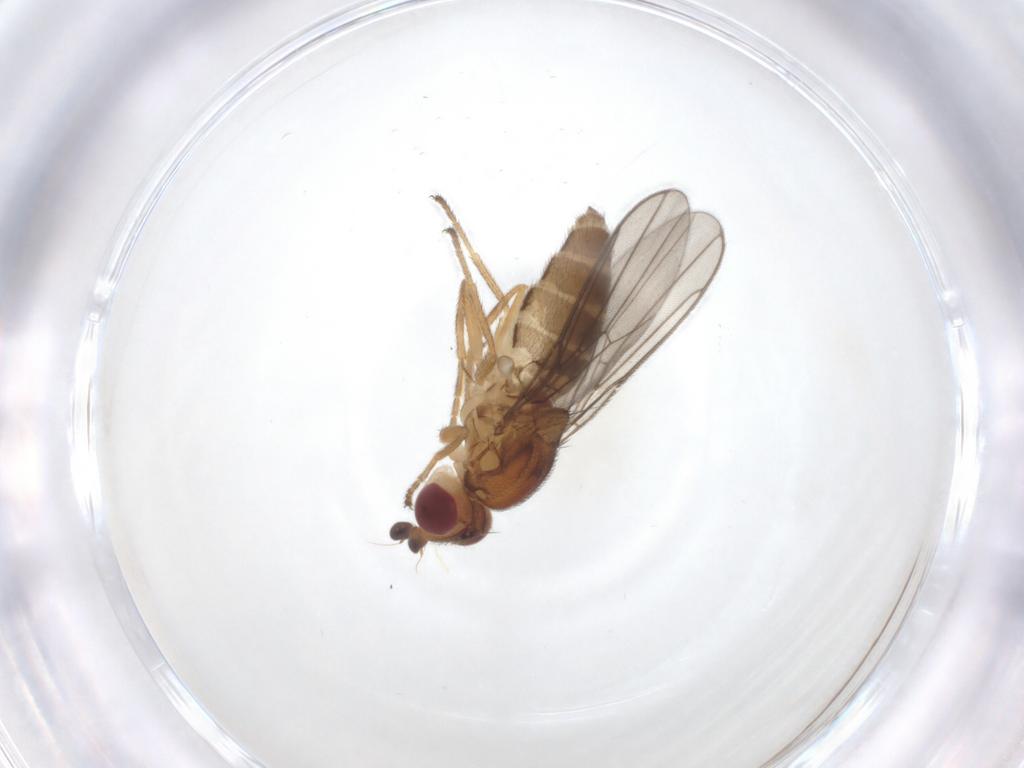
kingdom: Animalia
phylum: Arthropoda
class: Insecta
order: Diptera
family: Chloropidae
